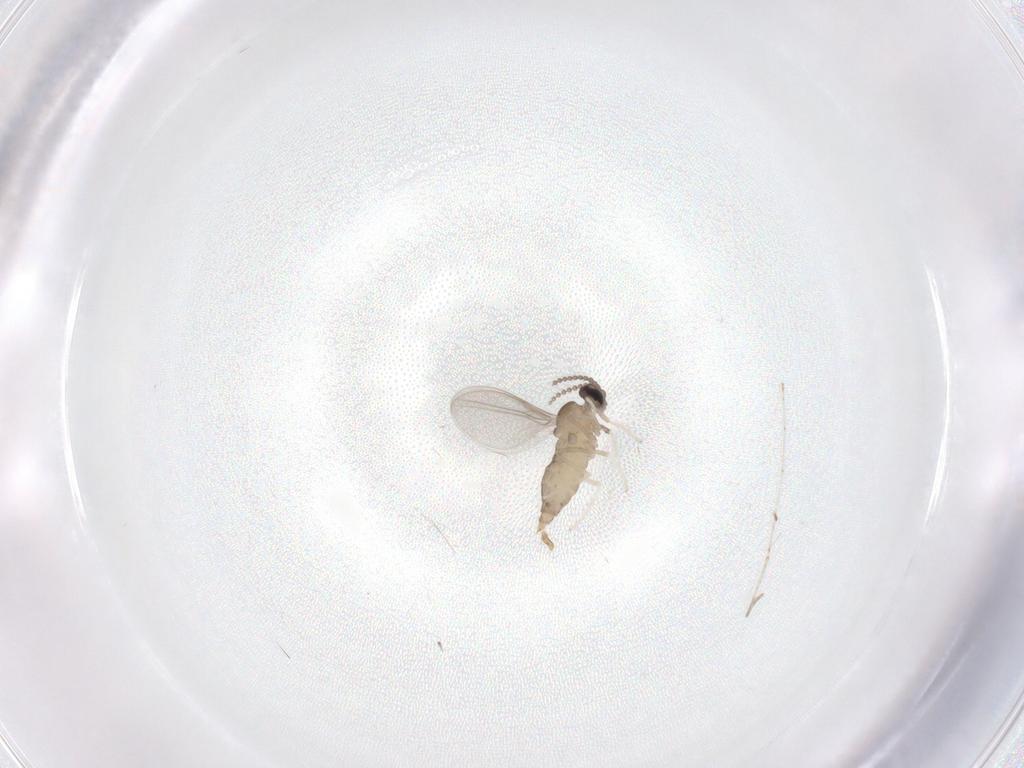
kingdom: Animalia
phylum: Arthropoda
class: Insecta
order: Diptera
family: Cecidomyiidae
